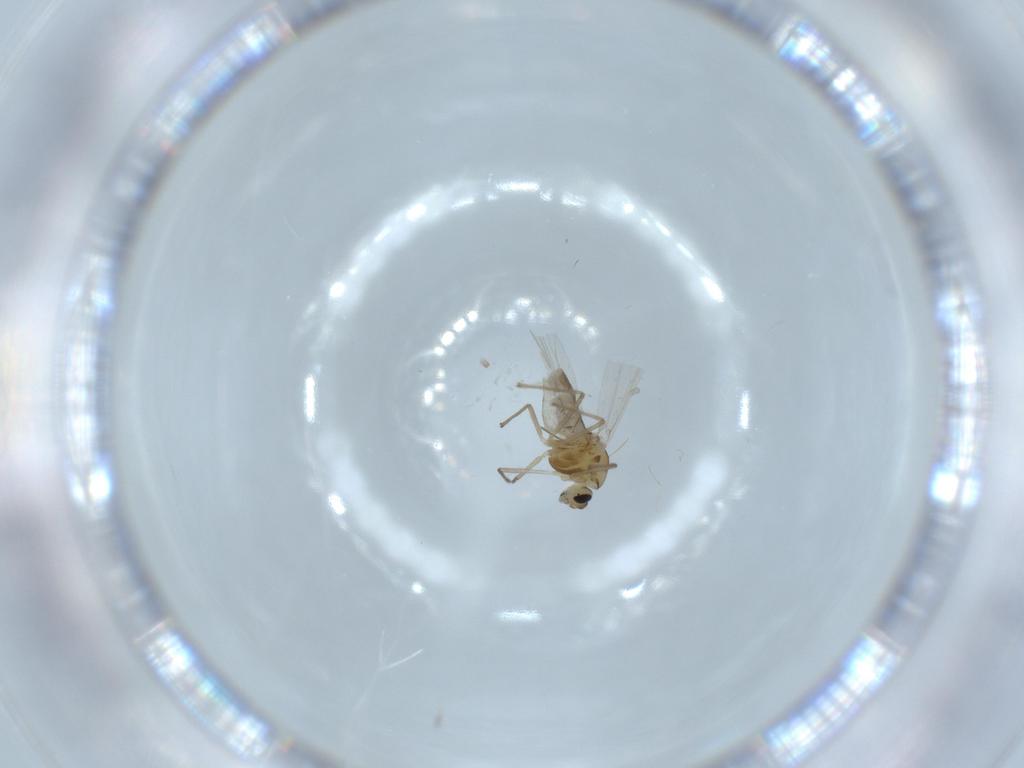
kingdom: Animalia
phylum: Arthropoda
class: Insecta
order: Diptera
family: Chironomidae
